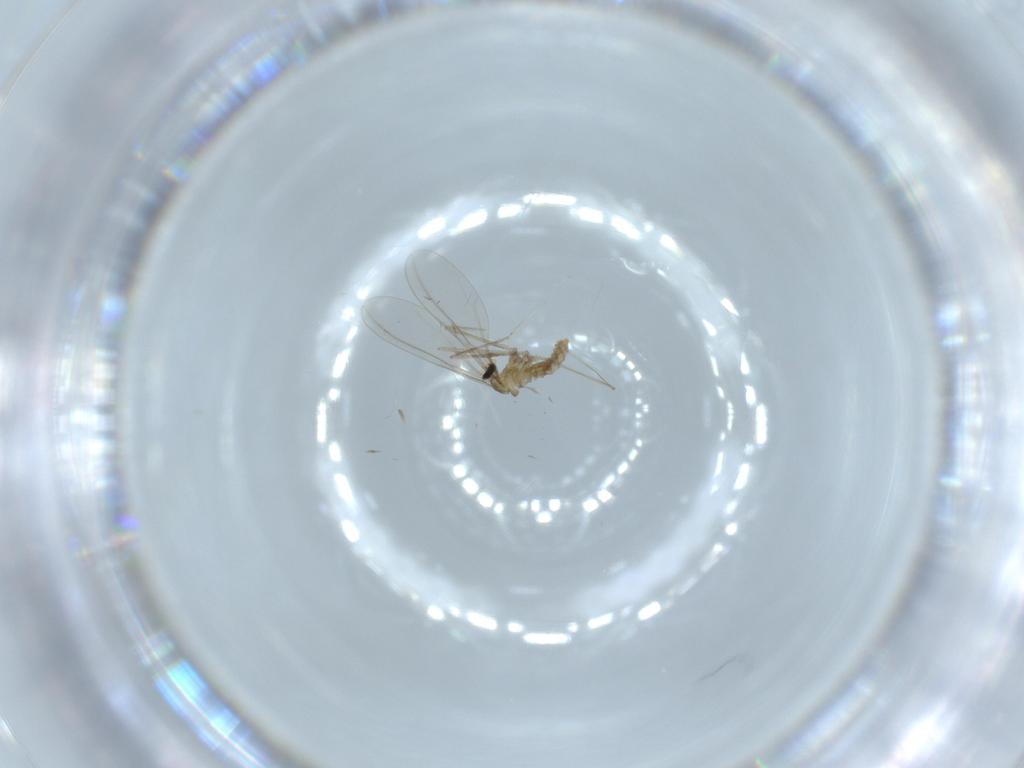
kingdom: Animalia
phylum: Arthropoda
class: Insecta
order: Diptera
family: Cecidomyiidae
